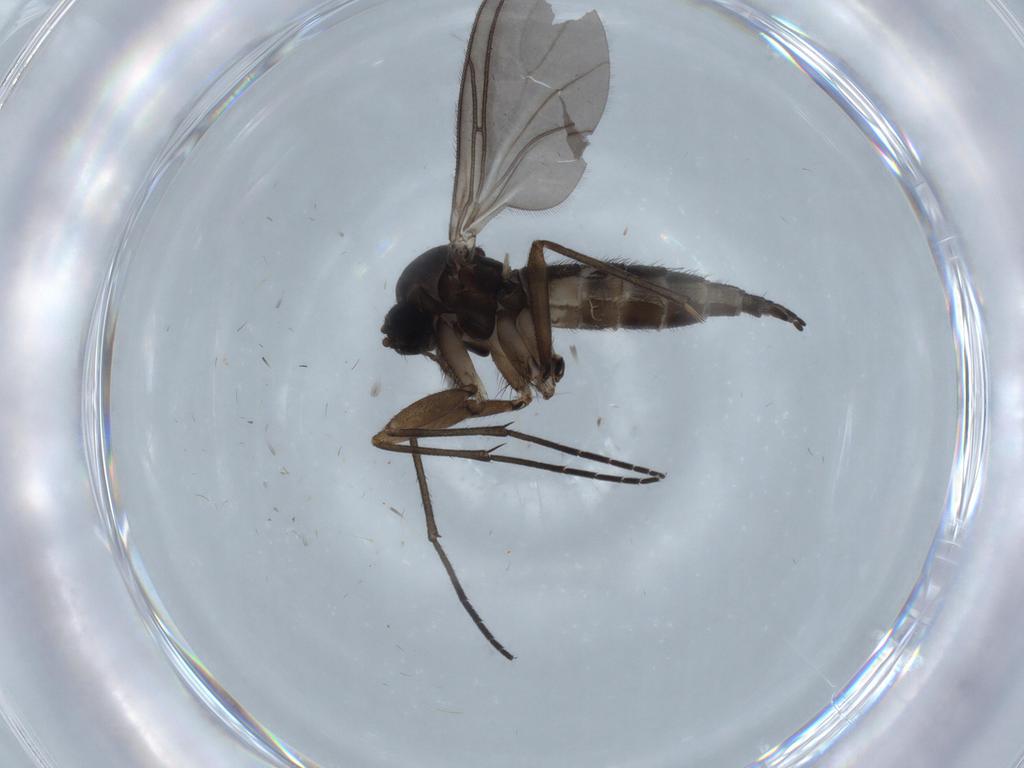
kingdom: Animalia
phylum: Arthropoda
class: Insecta
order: Diptera
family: Sciaridae
